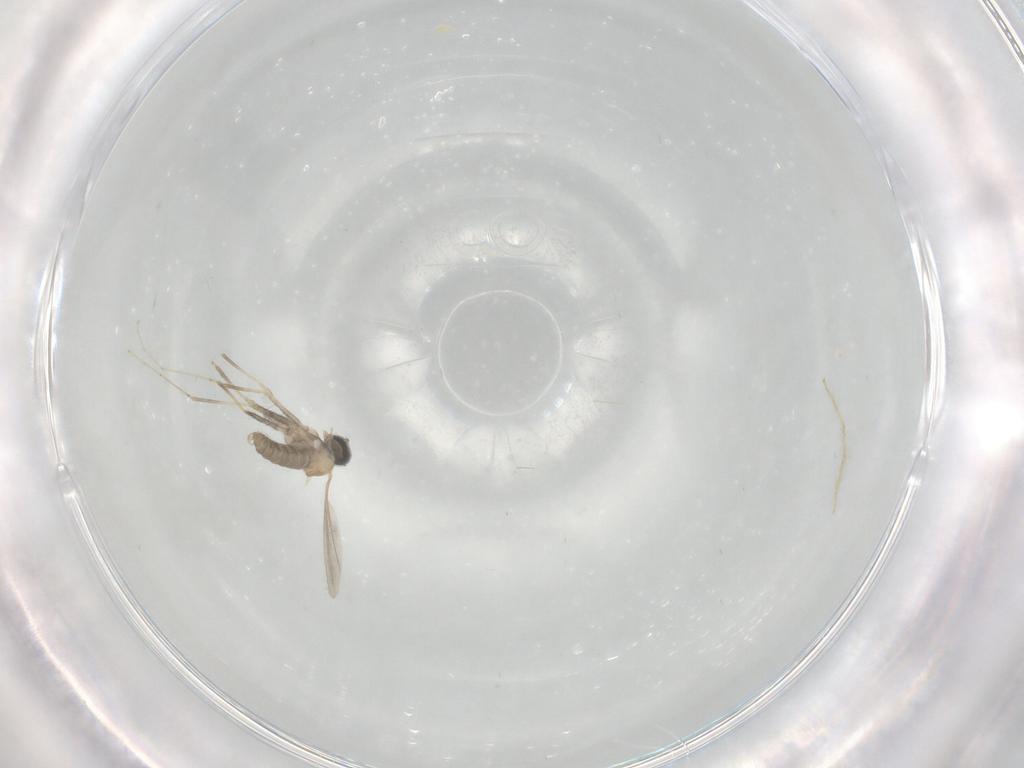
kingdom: Animalia
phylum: Arthropoda
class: Insecta
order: Diptera
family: Cecidomyiidae
